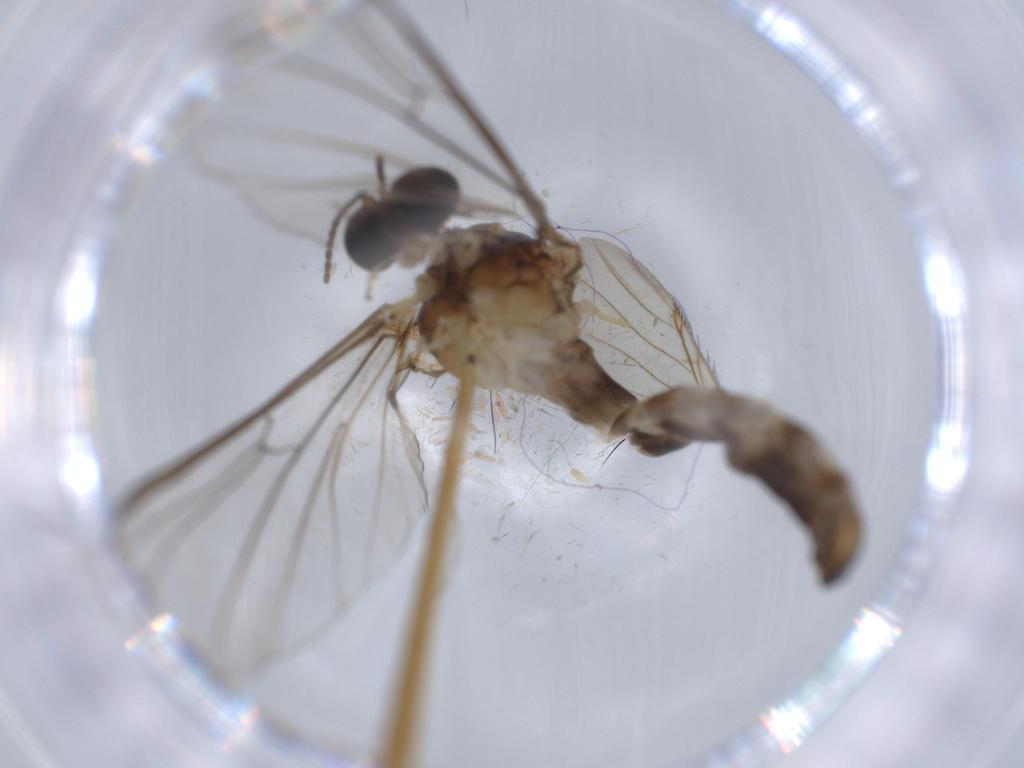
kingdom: Animalia
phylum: Arthropoda
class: Insecta
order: Diptera
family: Blephariceridae
